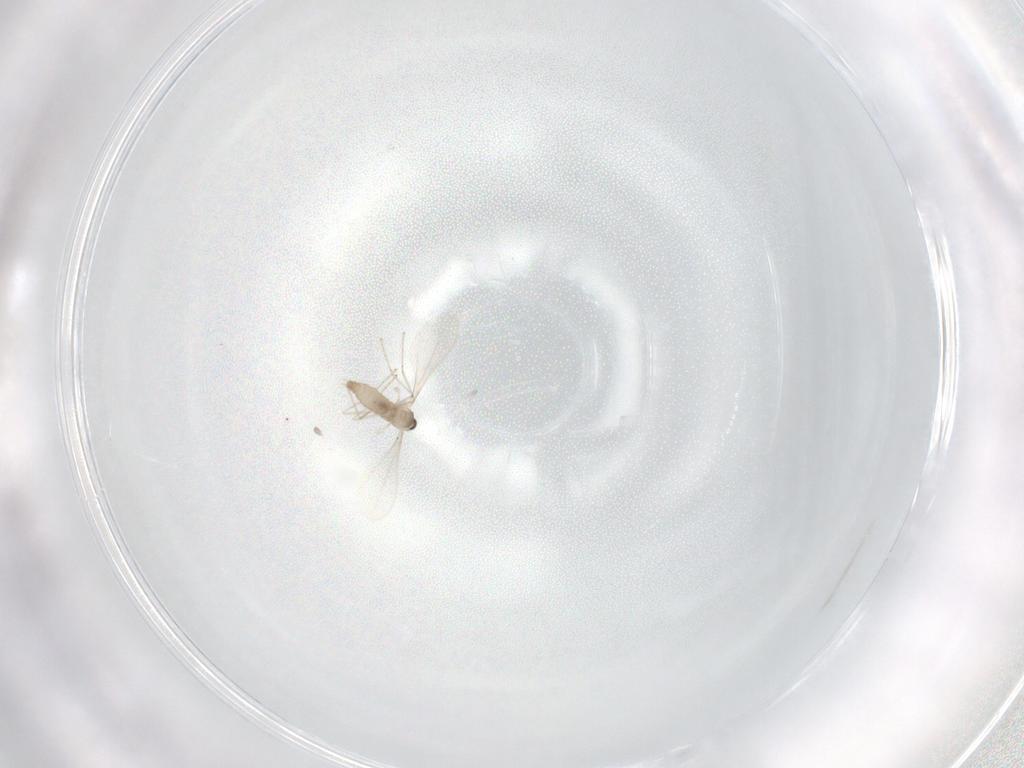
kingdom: Animalia
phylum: Arthropoda
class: Insecta
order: Diptera
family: Cecidomyiidae
